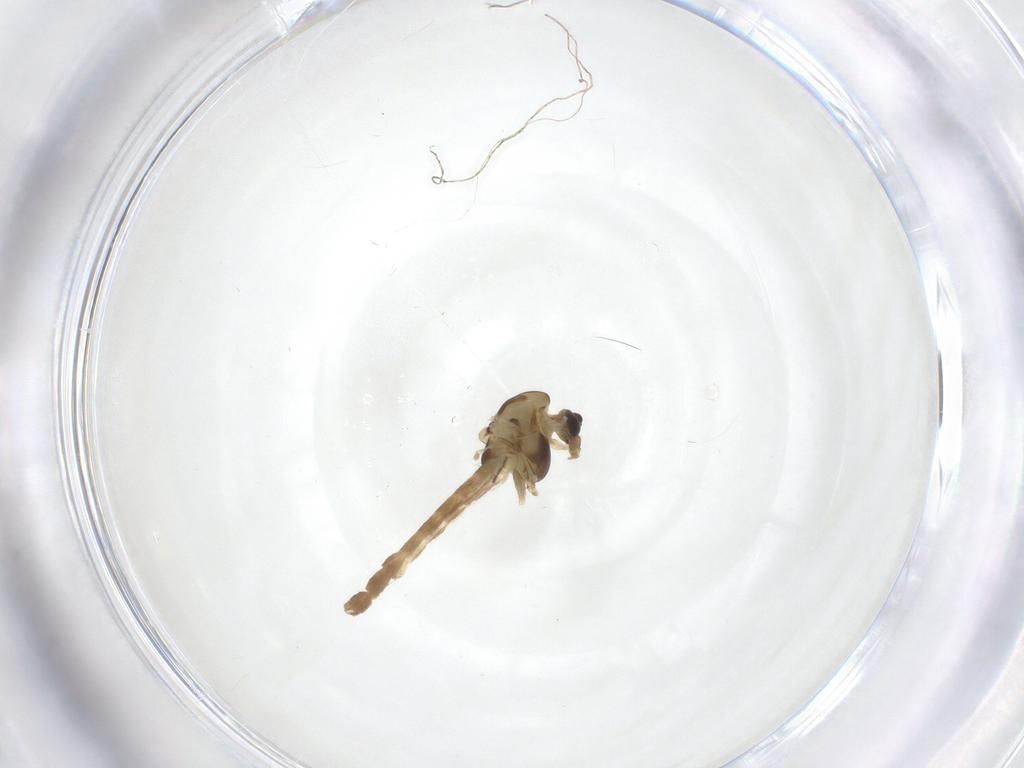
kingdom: Animalia
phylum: Arthropoda
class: Insecta
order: Diptera
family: Chironomidae
